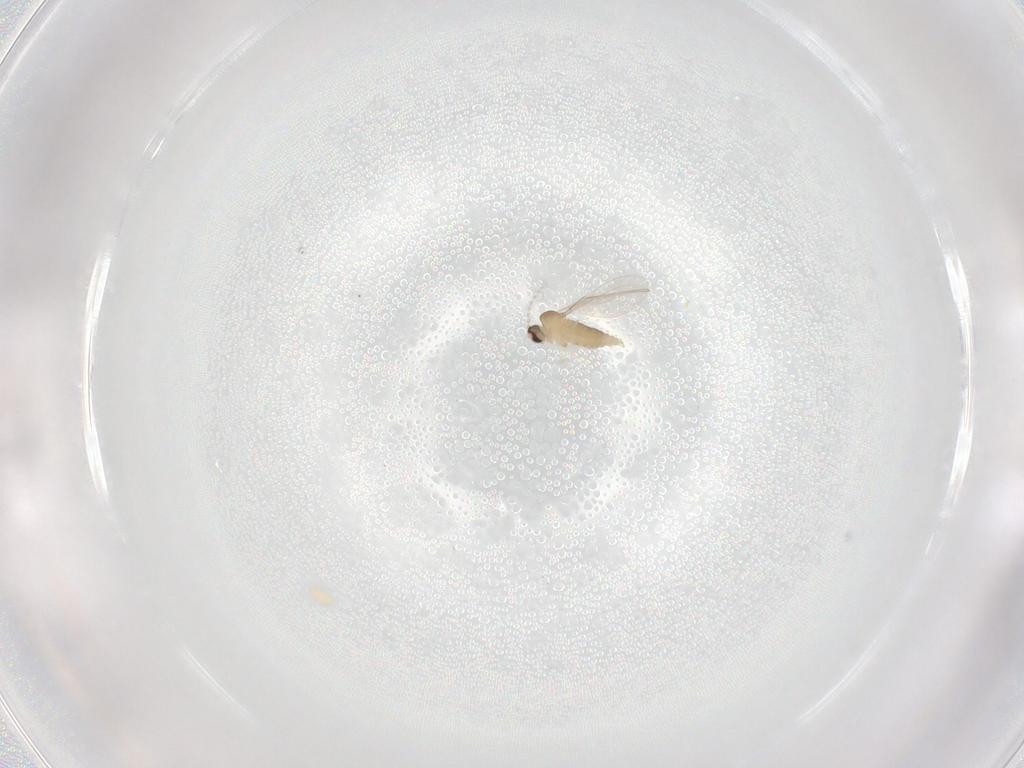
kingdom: Animalia
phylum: Arthropoda
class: Insecta
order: Diptera
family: Cecidomyiidae
